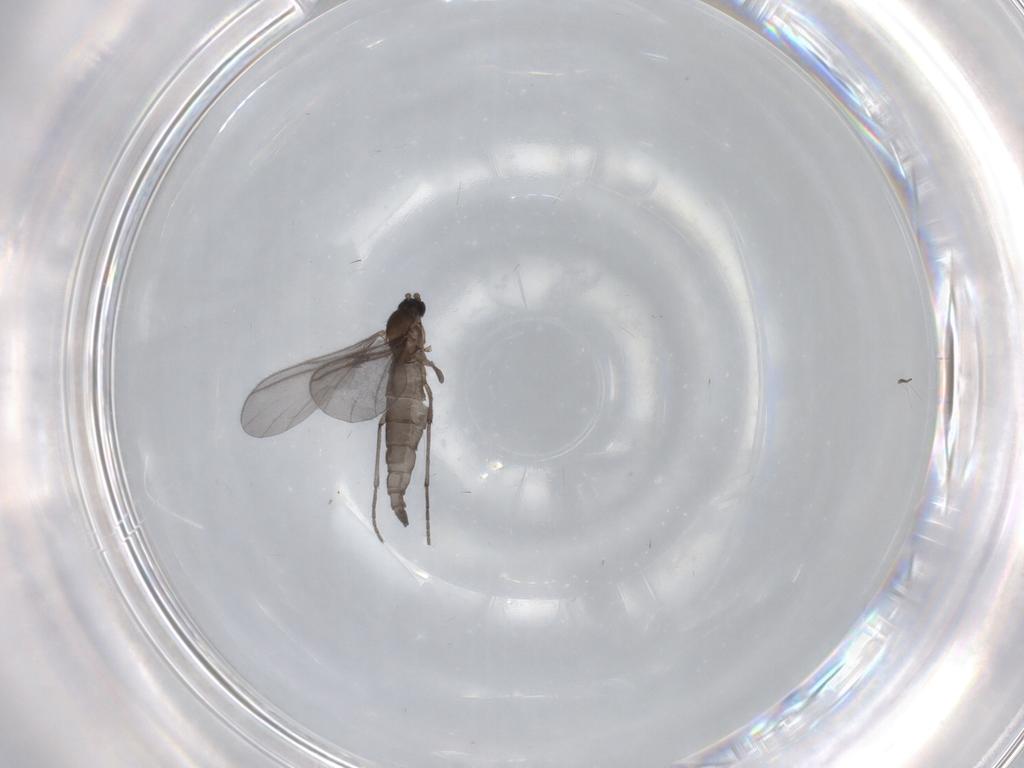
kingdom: Animalia
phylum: Arthropoda
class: Insecta
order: Diptera
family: Sciaridae
